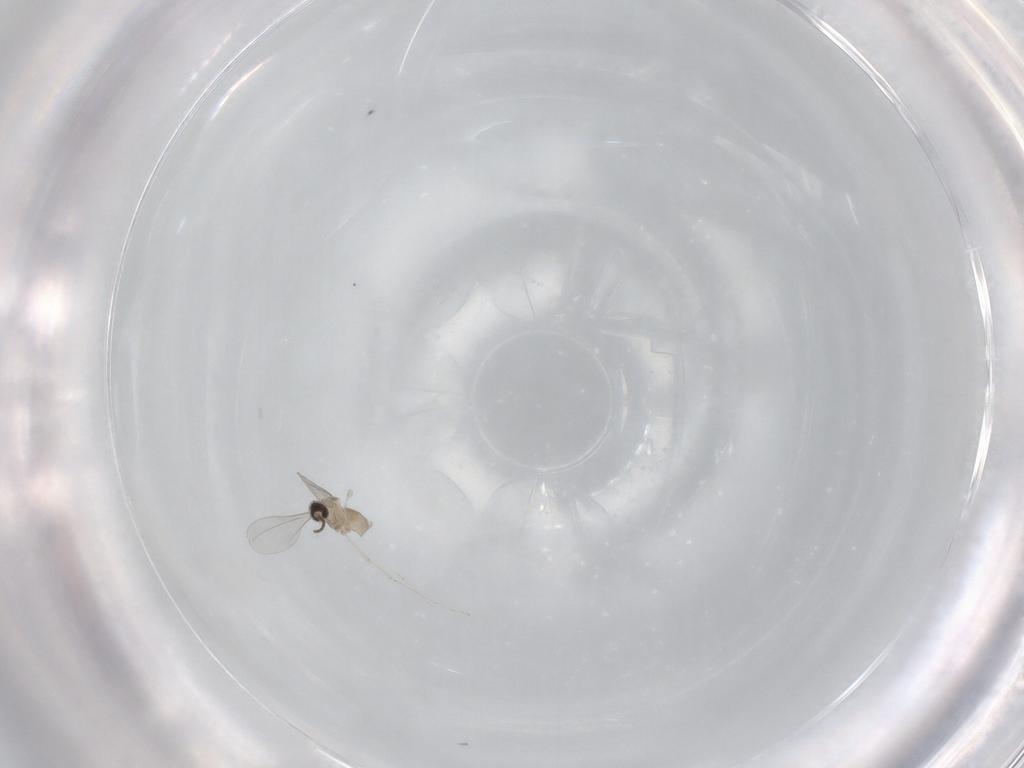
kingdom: Animalia
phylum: Arthropoda
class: Insecta
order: Diptera
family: Cecidomyiidae
